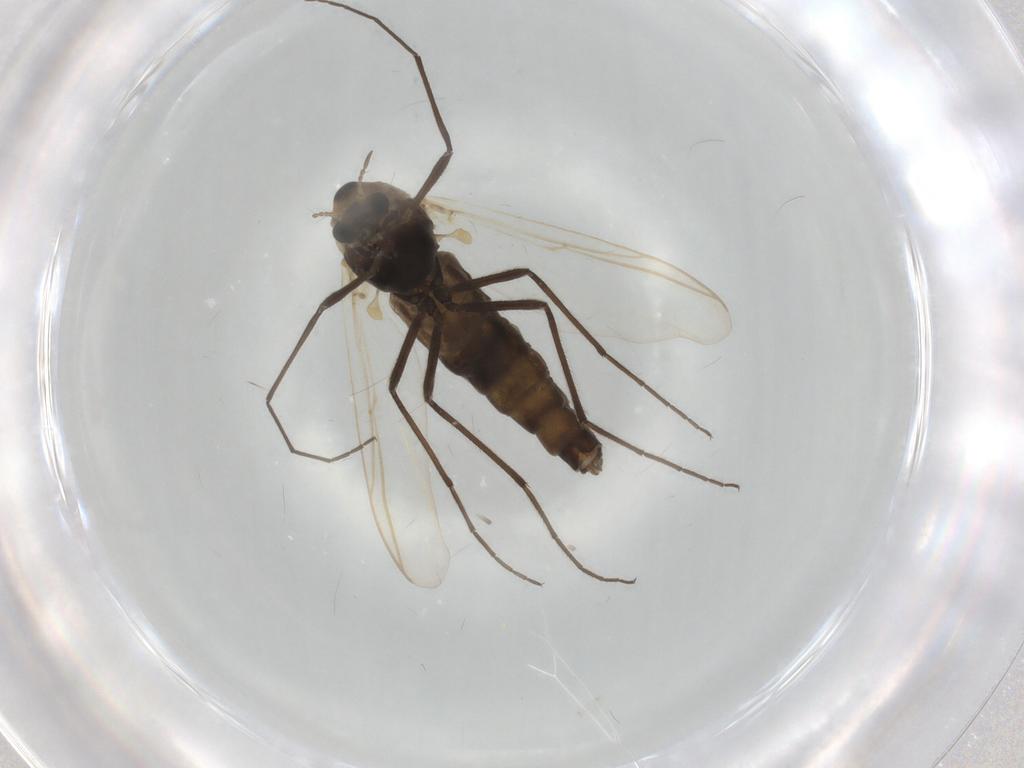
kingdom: Animalia
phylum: Arthropoda
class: Insecta
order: Diptera
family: Chironomidae
